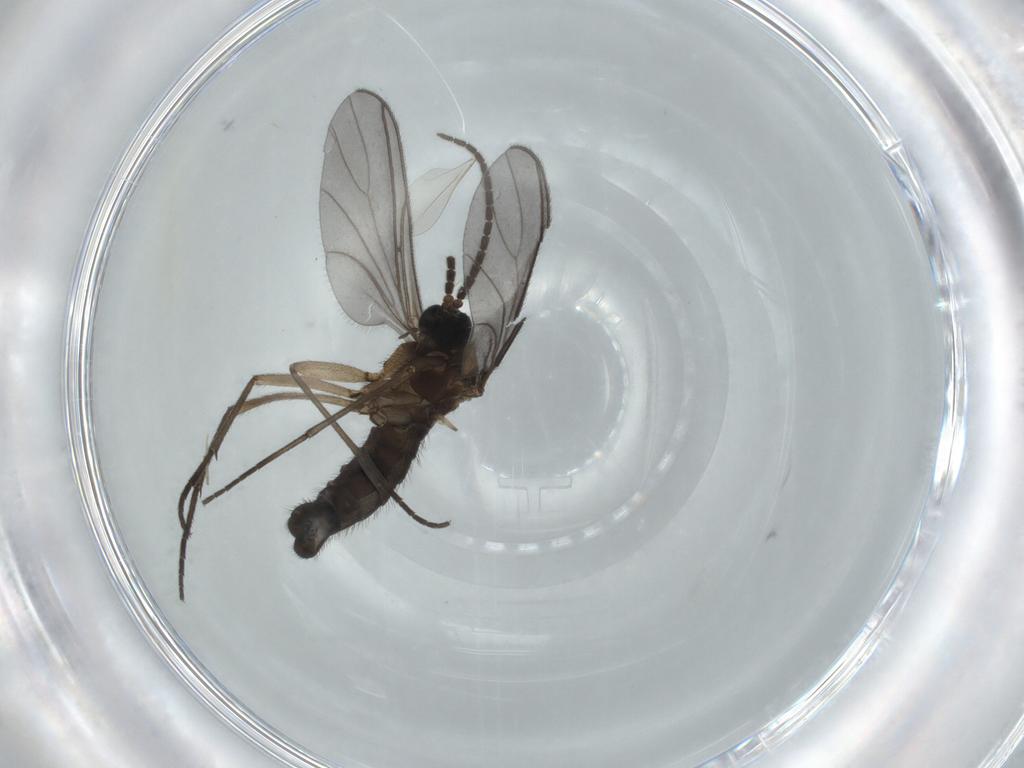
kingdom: Animalia
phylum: Arthropoda
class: Insecta
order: Diptera
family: Sciaridae
